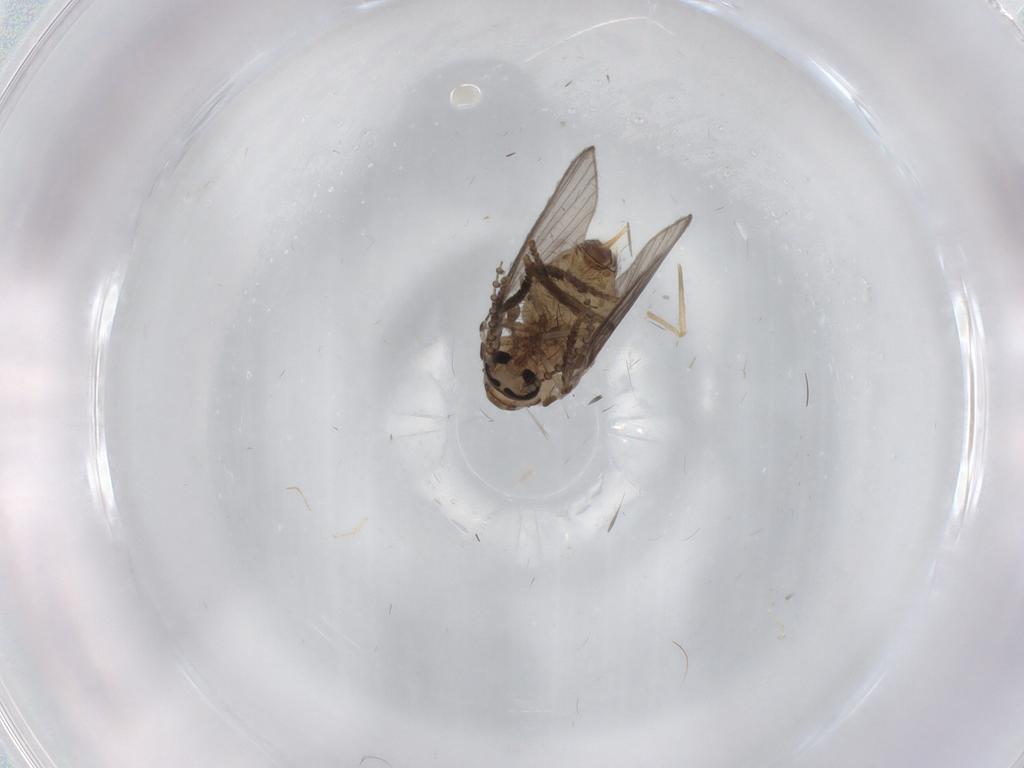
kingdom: Animalia
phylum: Arthropoda
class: Insecta
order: Diptera
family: Psychodidae
